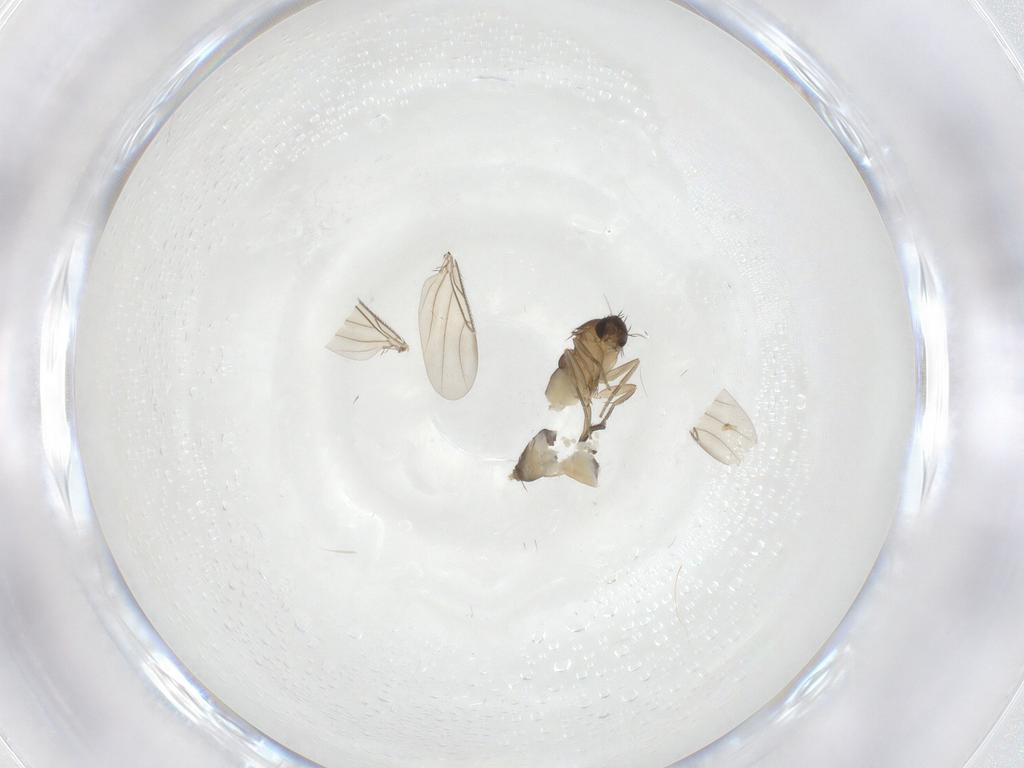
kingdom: Animalia
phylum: Arthropoda
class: Insecta
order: Diptera
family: Phoridae
